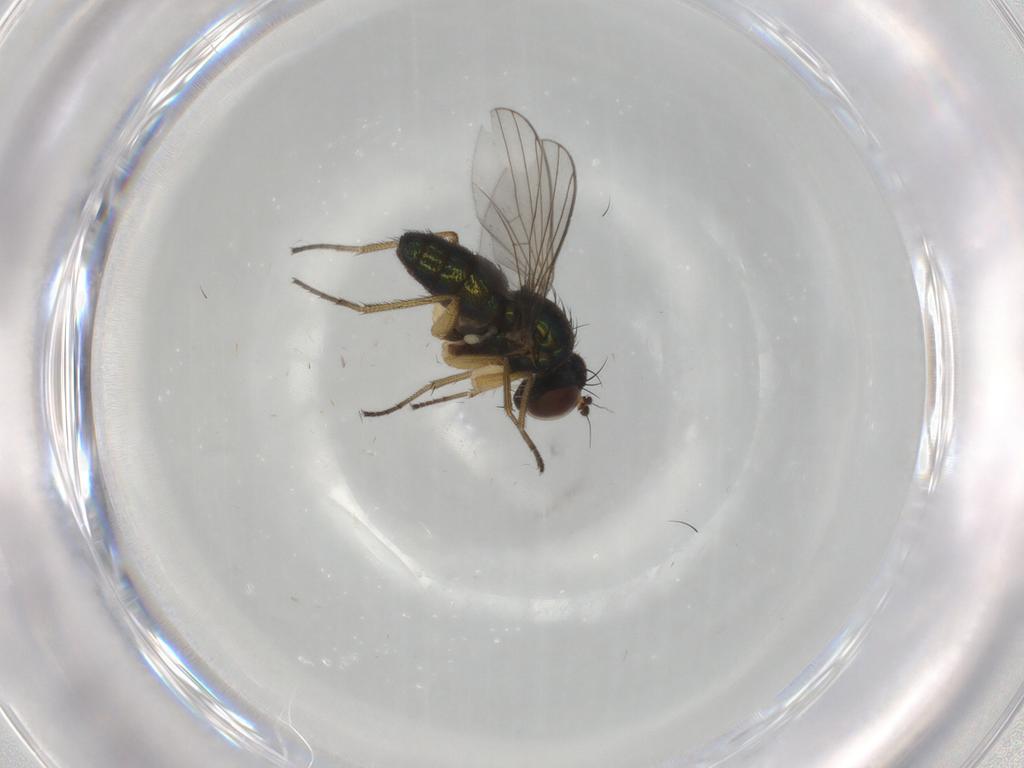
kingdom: Animalia
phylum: Arthropoda
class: Insecta
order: Diptera
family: Dolichopodidae
